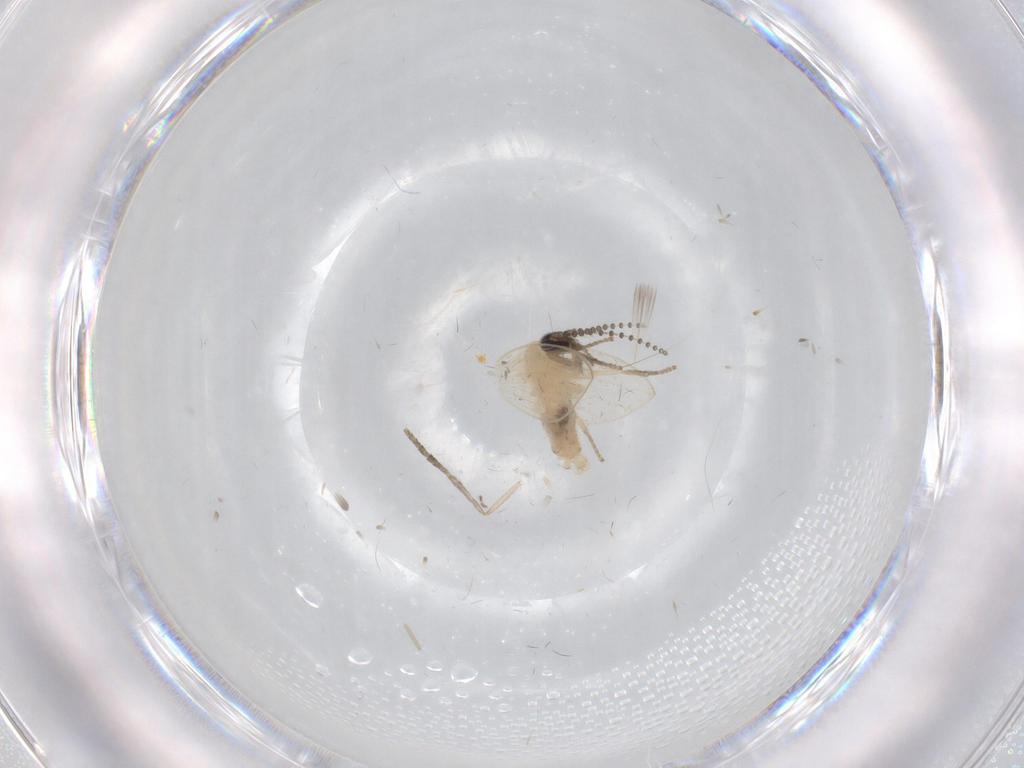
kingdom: Animalia
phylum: Arthropoda
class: Insecta
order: Diptera
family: Psychodidae
